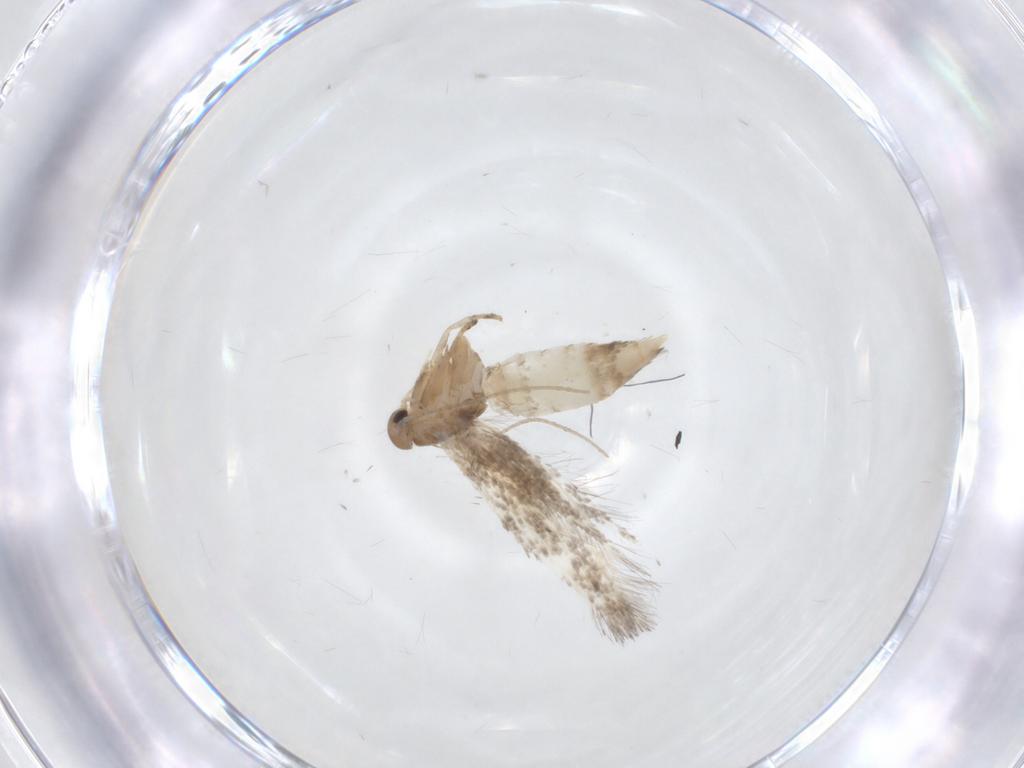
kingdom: Animalia
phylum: Arthropoda
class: Insecta
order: Lepidoptera
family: Elachistidae
